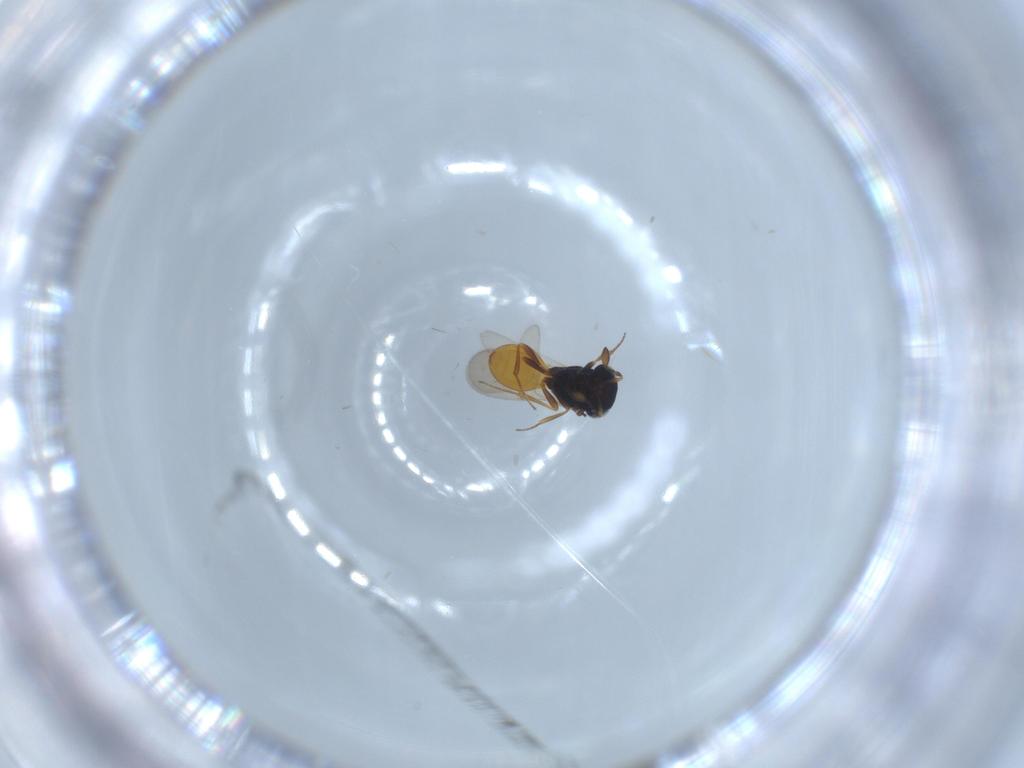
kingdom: Animalia
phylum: Arthropoda
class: Insecta
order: Hymenoptera
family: Scelionidae
